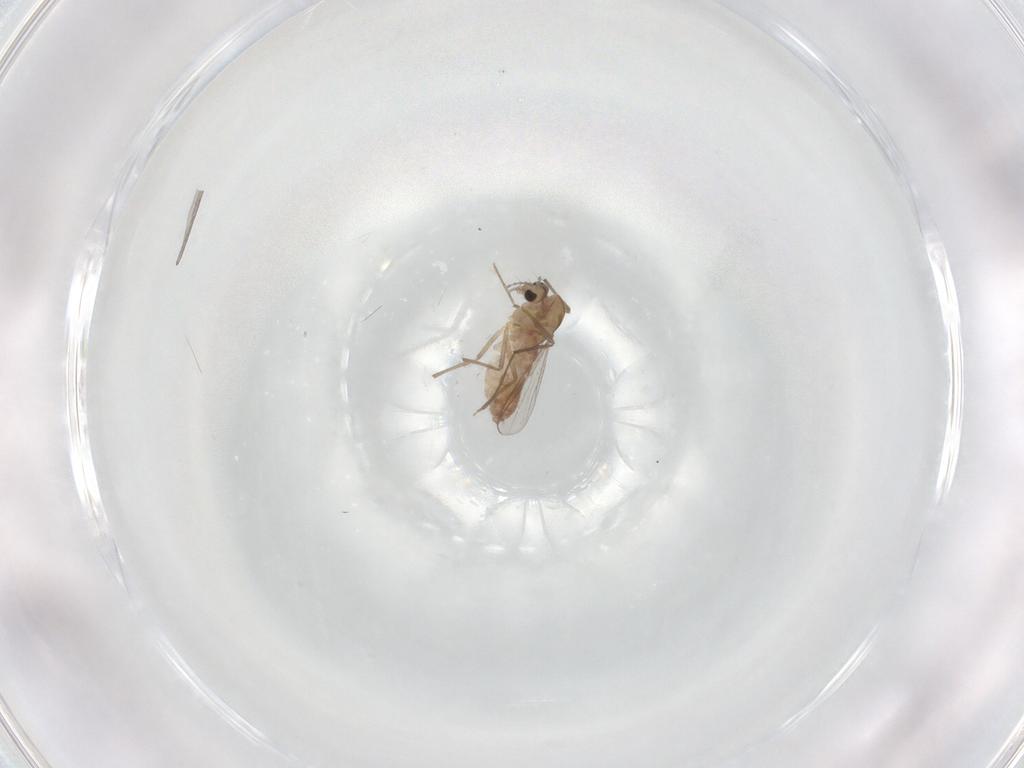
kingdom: Animalia
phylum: Arthropoda
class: Insecta
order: Diptera
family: Chironomidae
